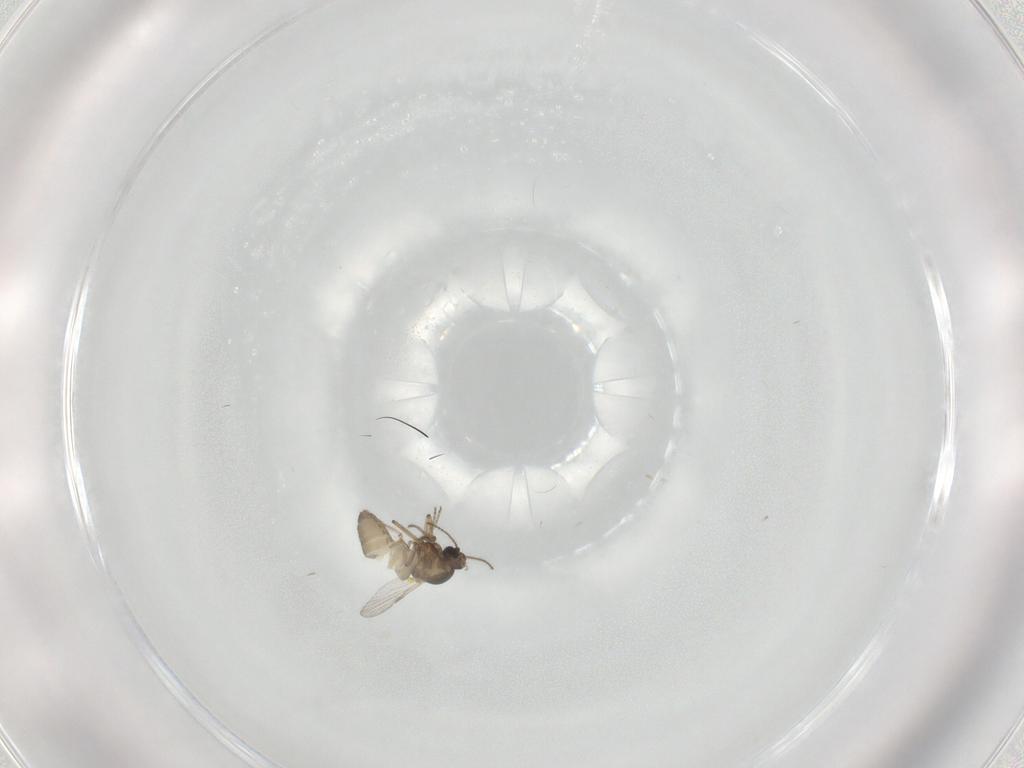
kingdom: Animalia
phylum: Arthropoda
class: Insecta
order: Diptera
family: Ceratopogonidae
